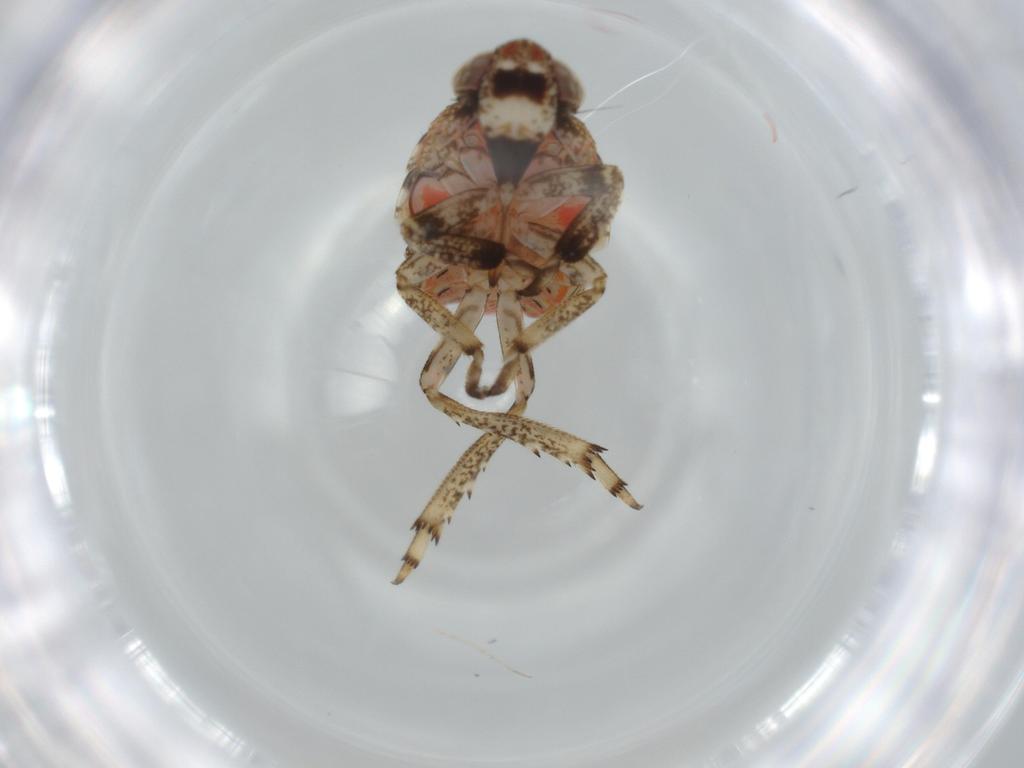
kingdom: Animalia
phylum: Arthropoda
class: Insecta
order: Hemiptera
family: Issidae
